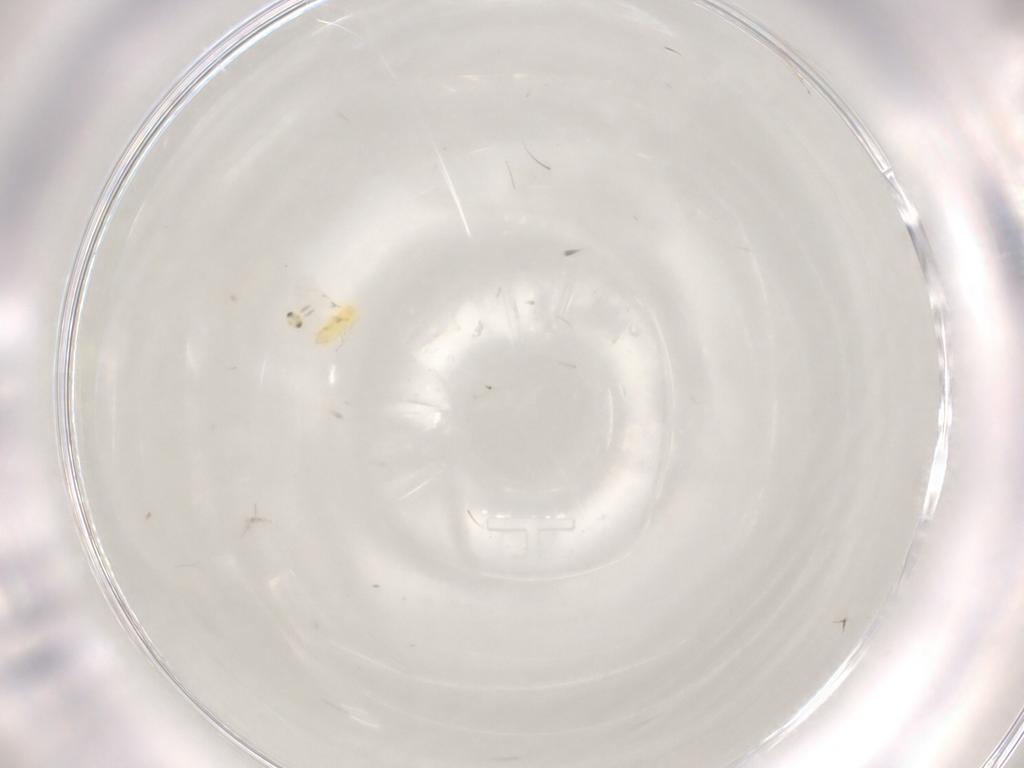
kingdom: Animalia
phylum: Arthropoda
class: Insecta
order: Hymenoptera
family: Trichogrammatidae
